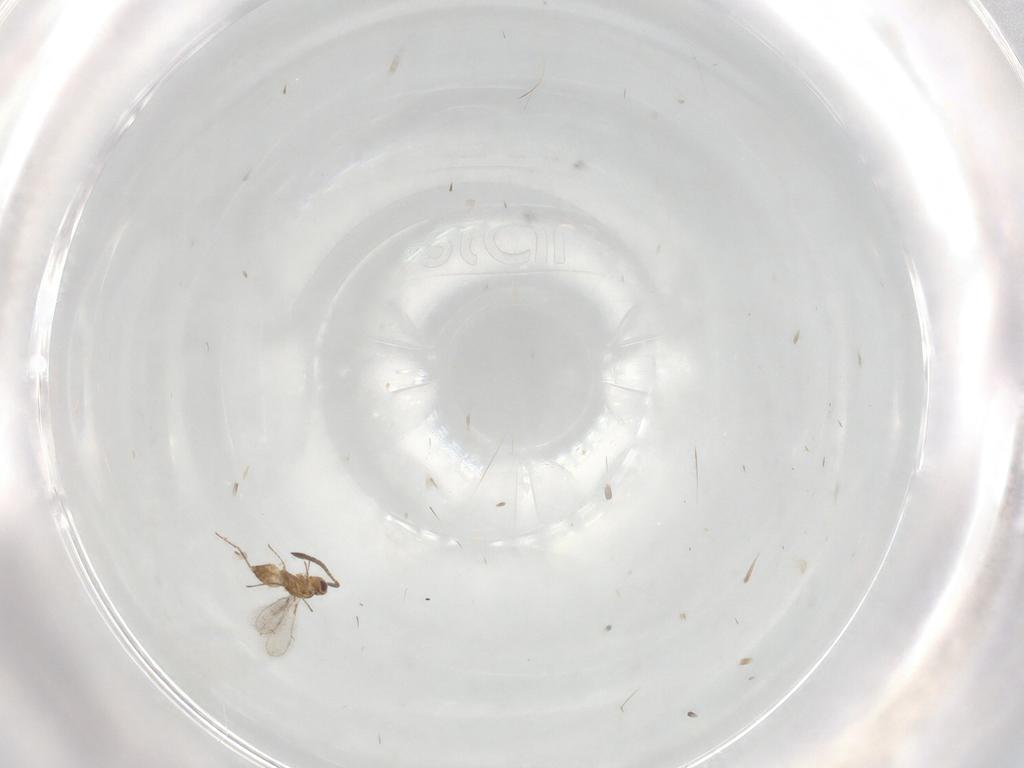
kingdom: Animalia
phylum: Arthropoda
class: Insecta
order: Hymenoptera
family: Mymaridae
